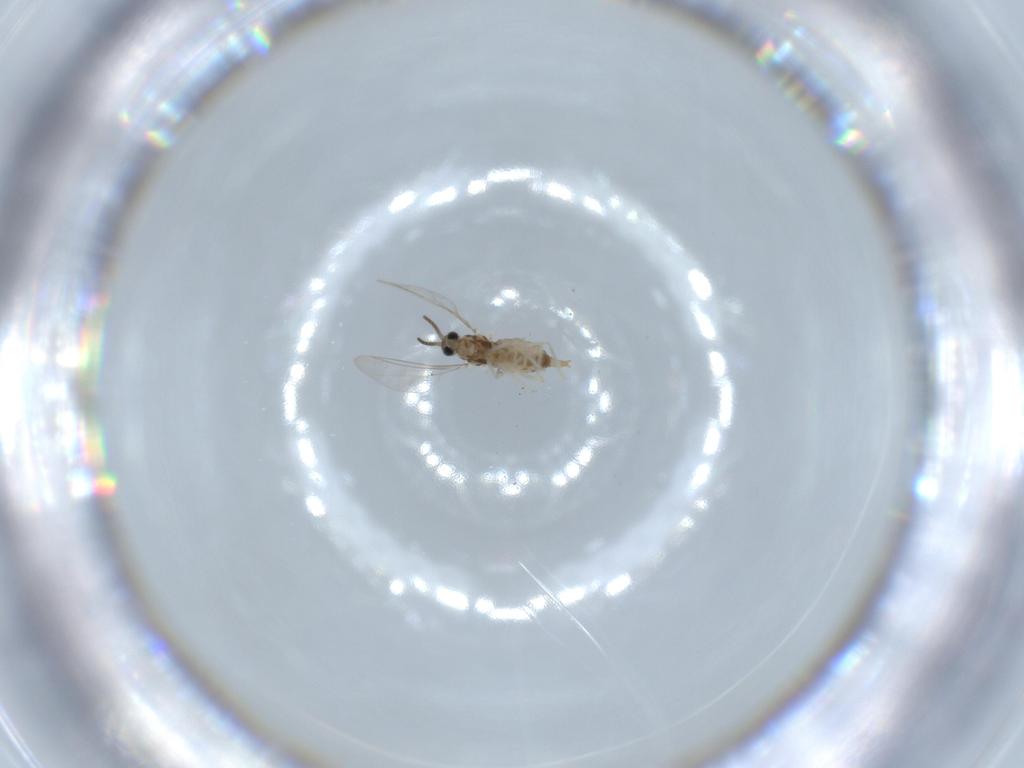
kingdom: Animalia
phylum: Arthropoda
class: Insecta
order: Diptera
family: Cecidomyiidae
